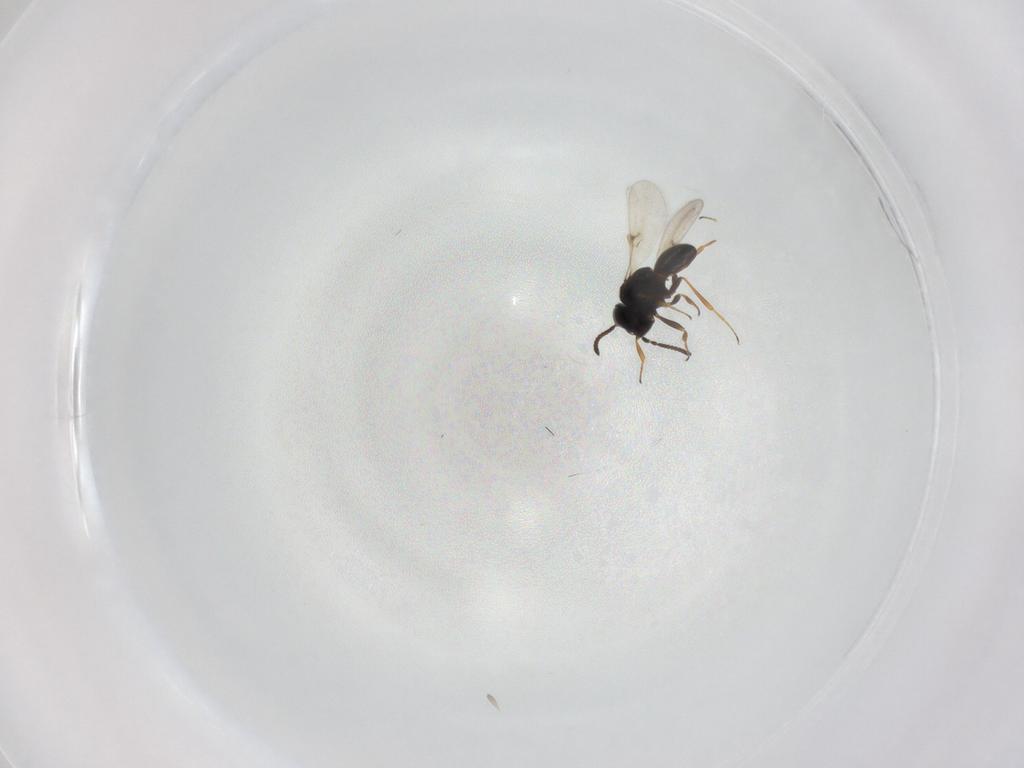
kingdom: Animalia
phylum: Arthropoda
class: Insecta
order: Hymenoptera
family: Scelionidae
